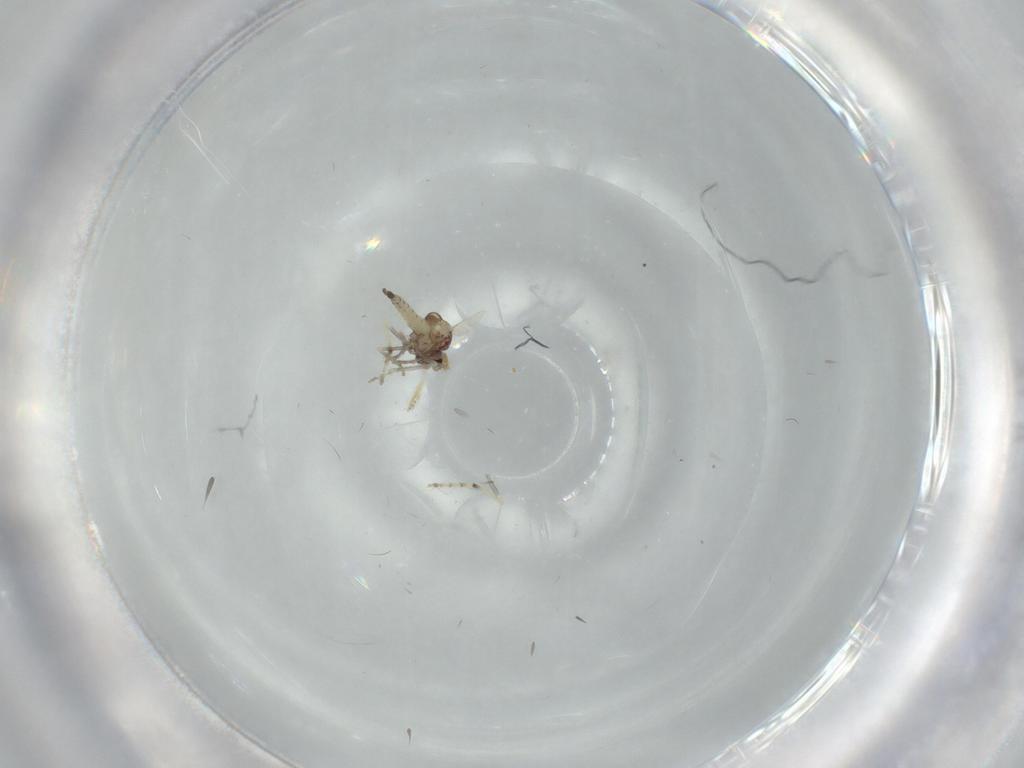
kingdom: Animalia
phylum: Arthropoda
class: Insecta
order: Diptera
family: Ceratopogonidae
